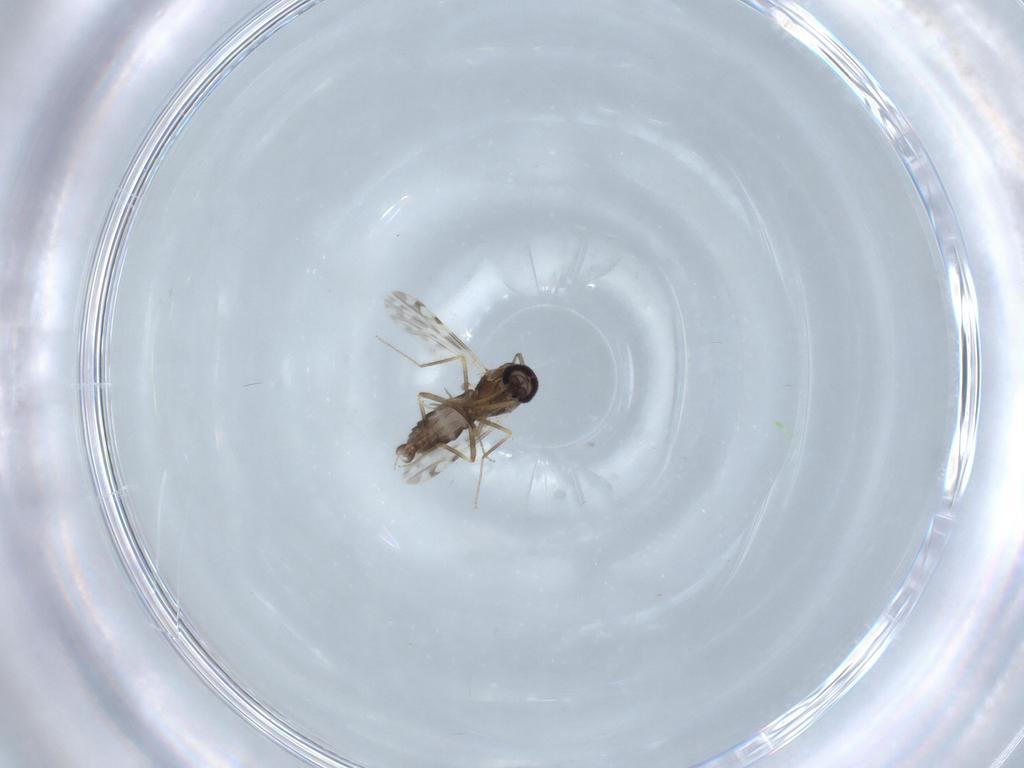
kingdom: Animalia
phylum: Arthropoda
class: Insecta
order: Diptera
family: Ceratopogonidae
